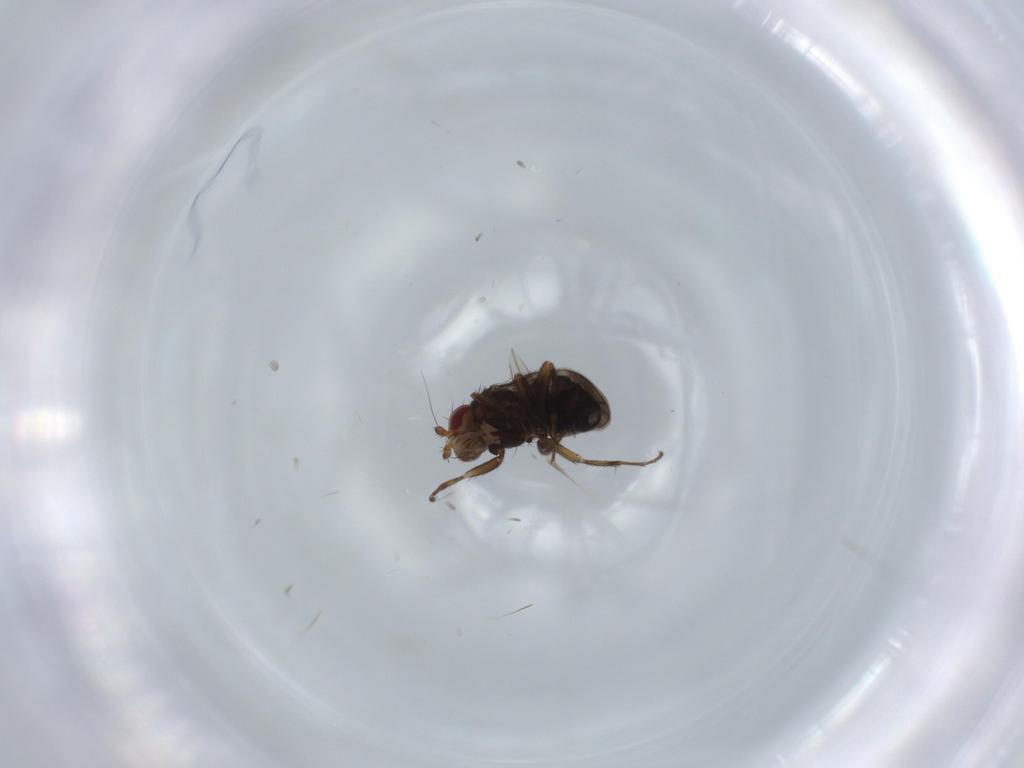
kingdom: Animalia
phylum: Arthropoda
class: Insecta
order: Diptera
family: Sphaeroceridae
